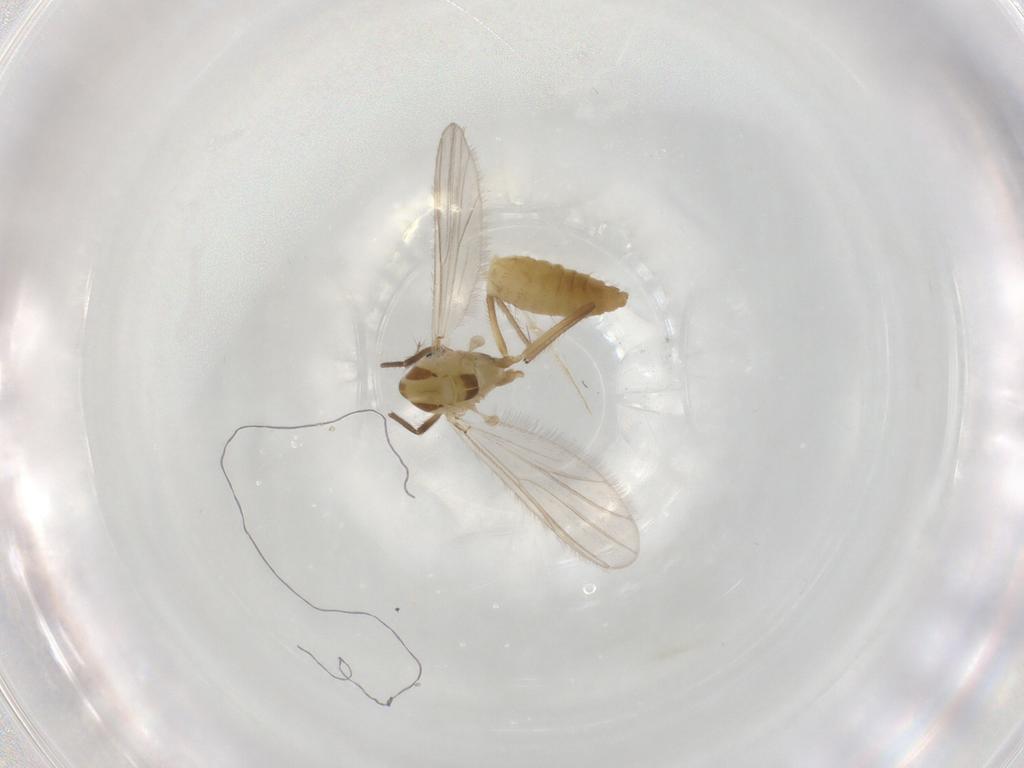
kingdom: Animalia
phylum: Arthropoda
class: Insecta
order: Diptera
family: Chironomidae
